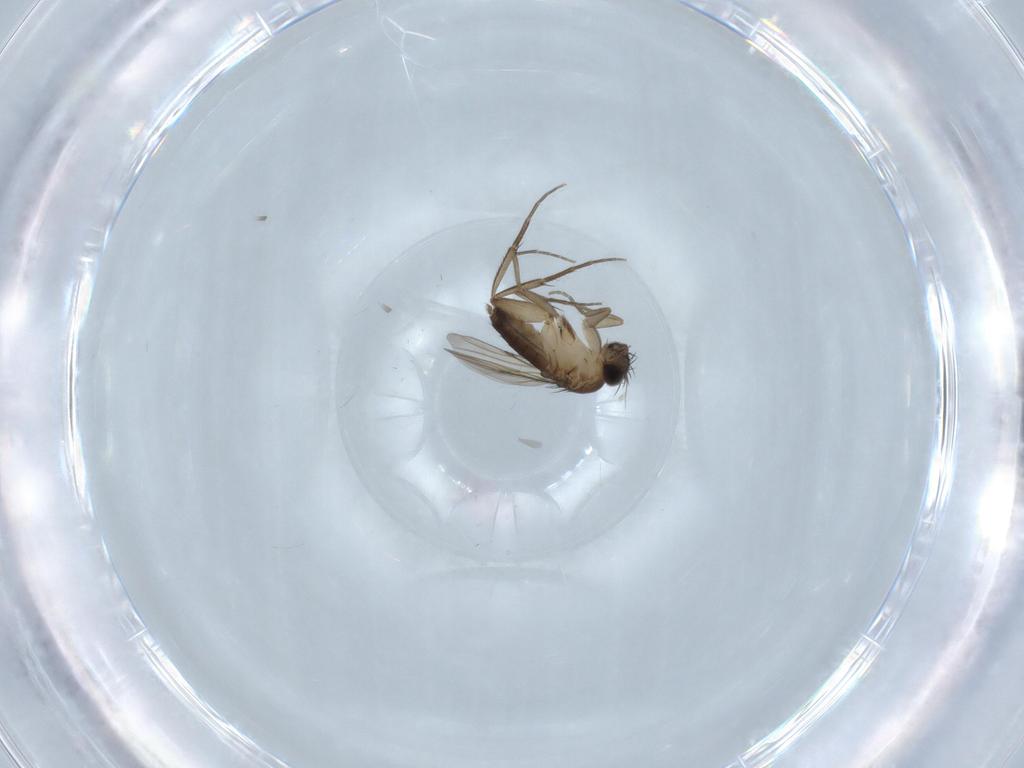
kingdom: Animalia
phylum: Arthropoda
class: Insecta
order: Diptera
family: Phoridae
